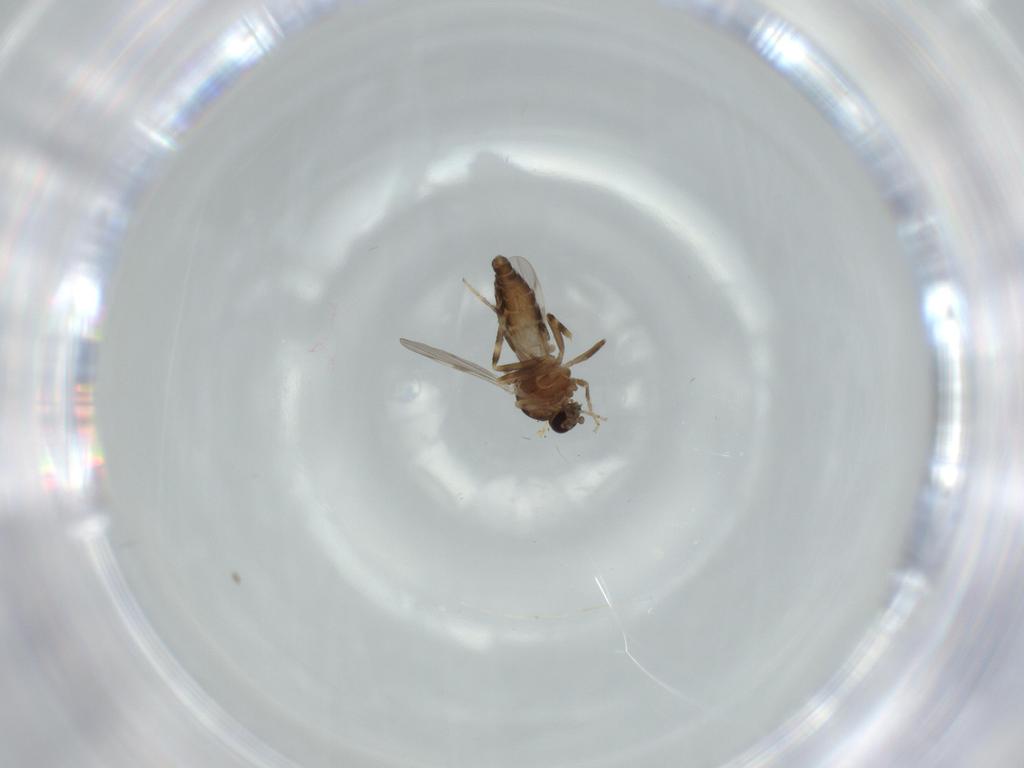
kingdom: Animalia
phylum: Arthropoda
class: Insecta
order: Diptera
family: Ceratopogonidae
